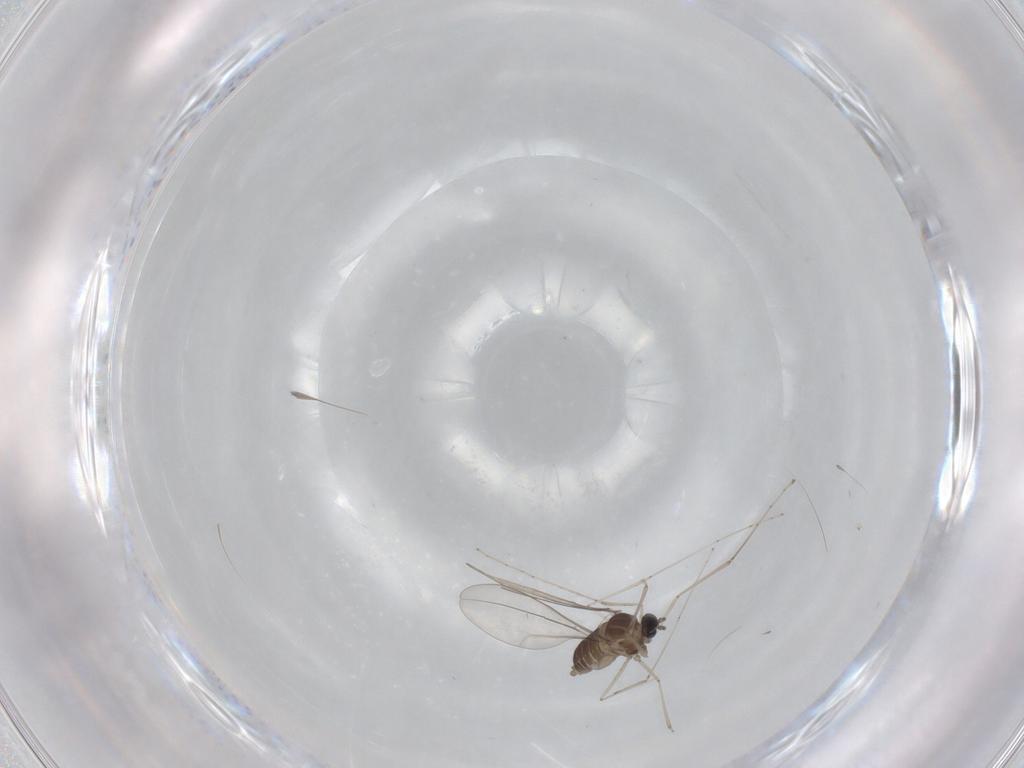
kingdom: Animalia
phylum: Arthropoda
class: Insecta
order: Diptera
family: Cecidomyiidae
